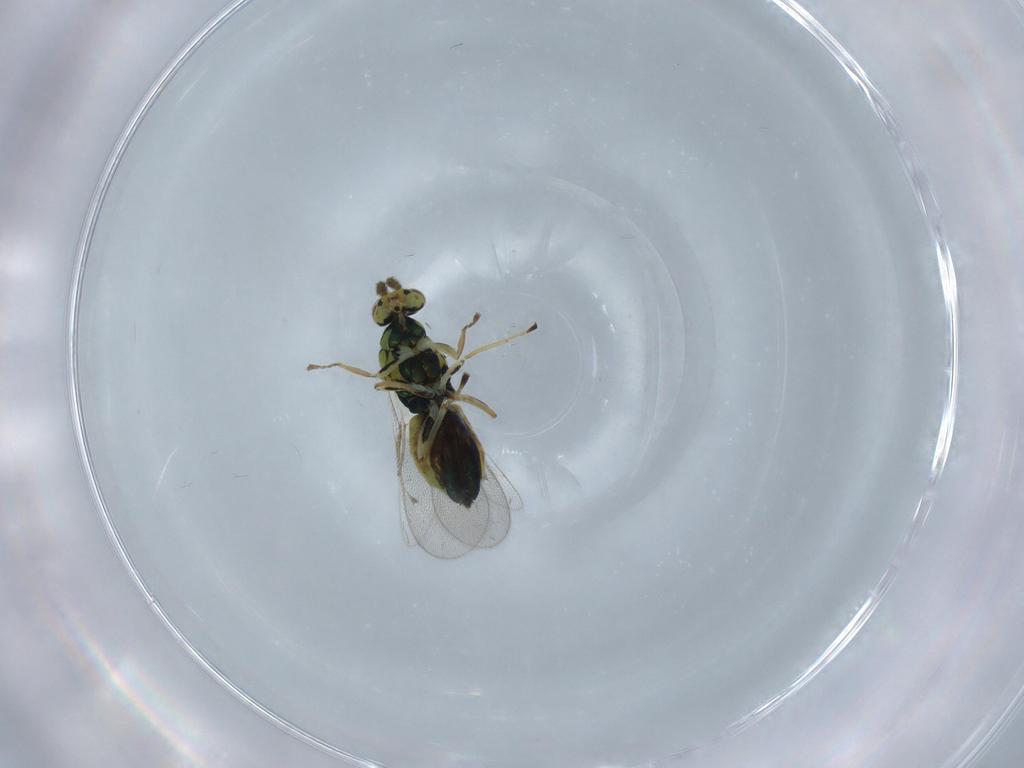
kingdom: Animalia
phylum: Arthropoda
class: Insecta
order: Hymenoptera
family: Eulophidae
